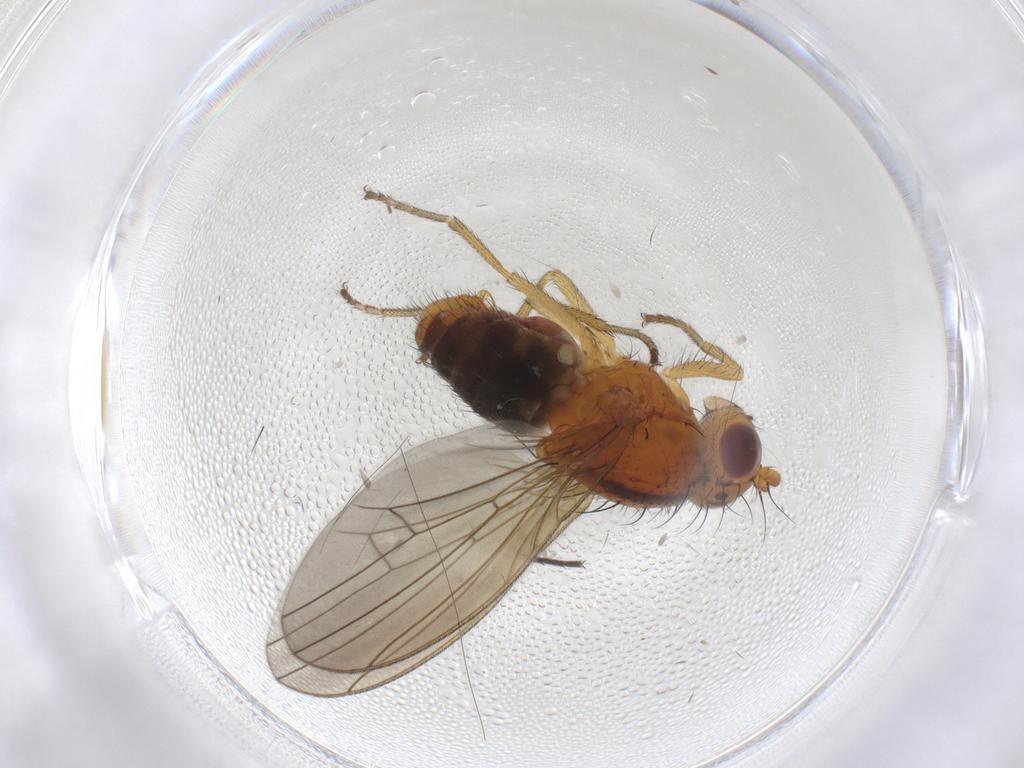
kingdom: Animalia
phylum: Arthropoda
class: Insecta
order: Diptera
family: Lauxaniidae
